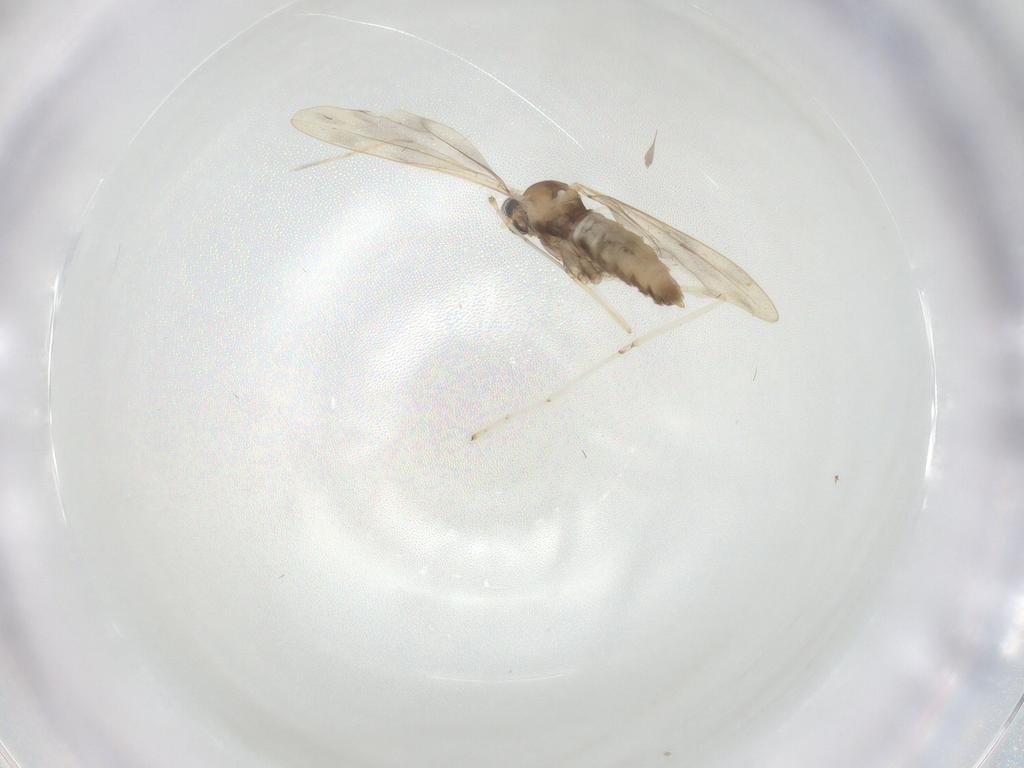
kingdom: Animalia
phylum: Arthropoda
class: Insecta
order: Diptera
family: Cecidomyiidae
